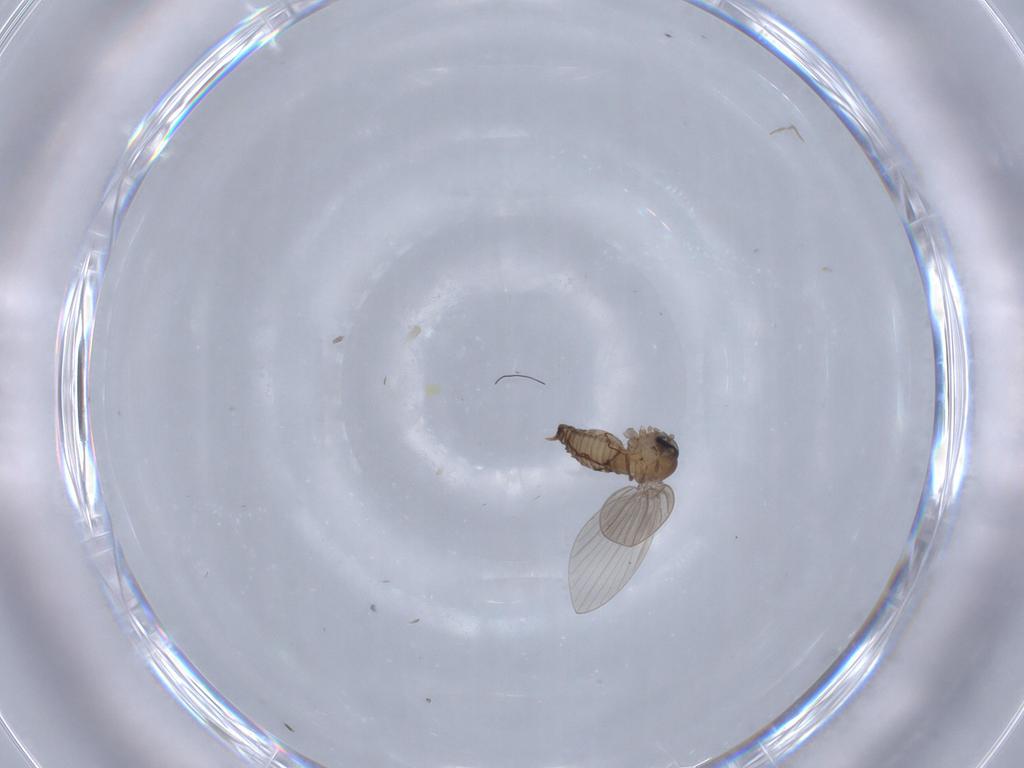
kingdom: Animalia
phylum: Arthropoda
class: Insecta
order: Diptera
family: Psychodidae
